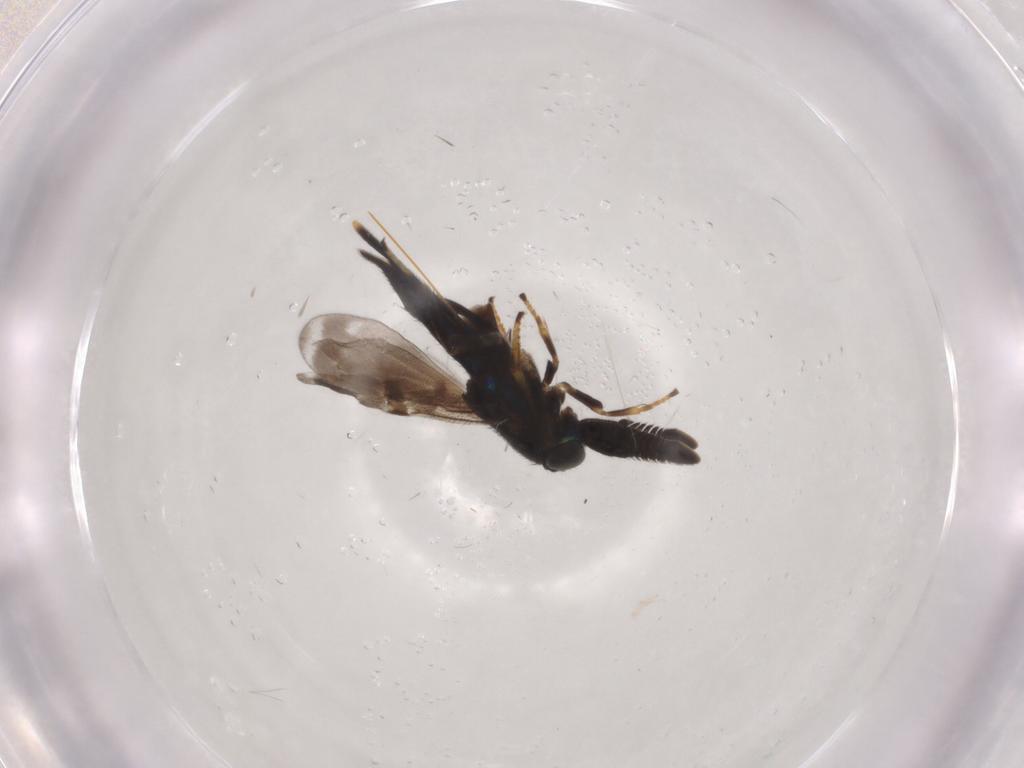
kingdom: Animalia
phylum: Arthropoda
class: Insecta
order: Hymenoptera
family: Encyrtidae
